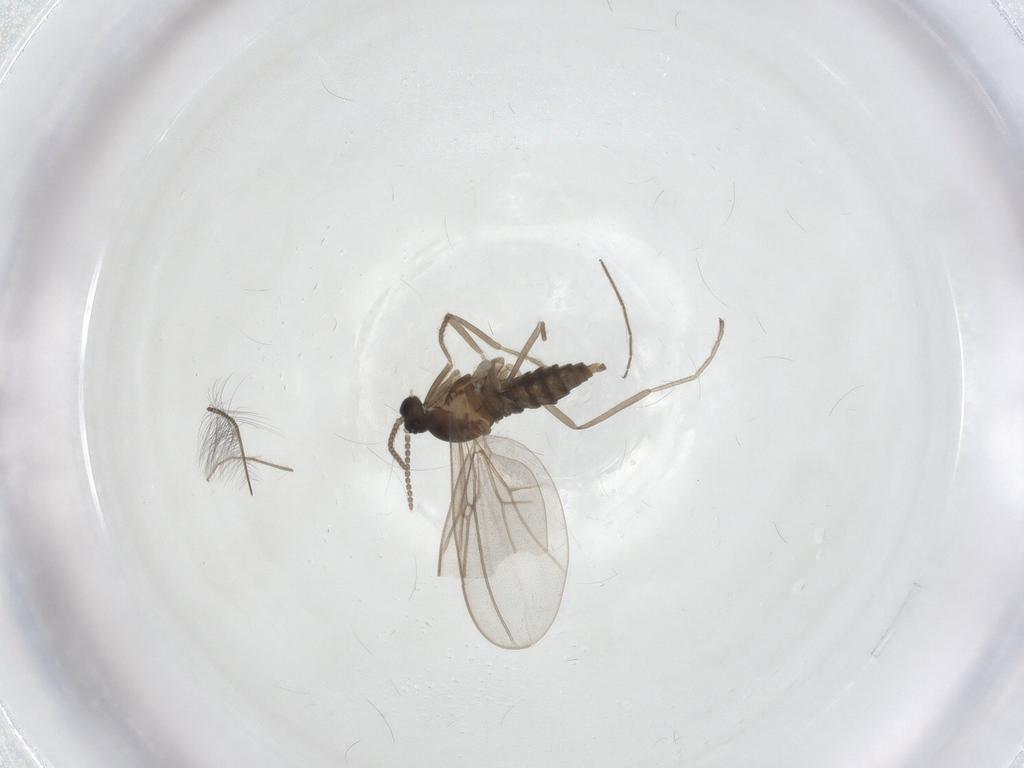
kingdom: Animalia
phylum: Arthropoda
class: Insecta
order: Diptera
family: Cecidomyiidae
